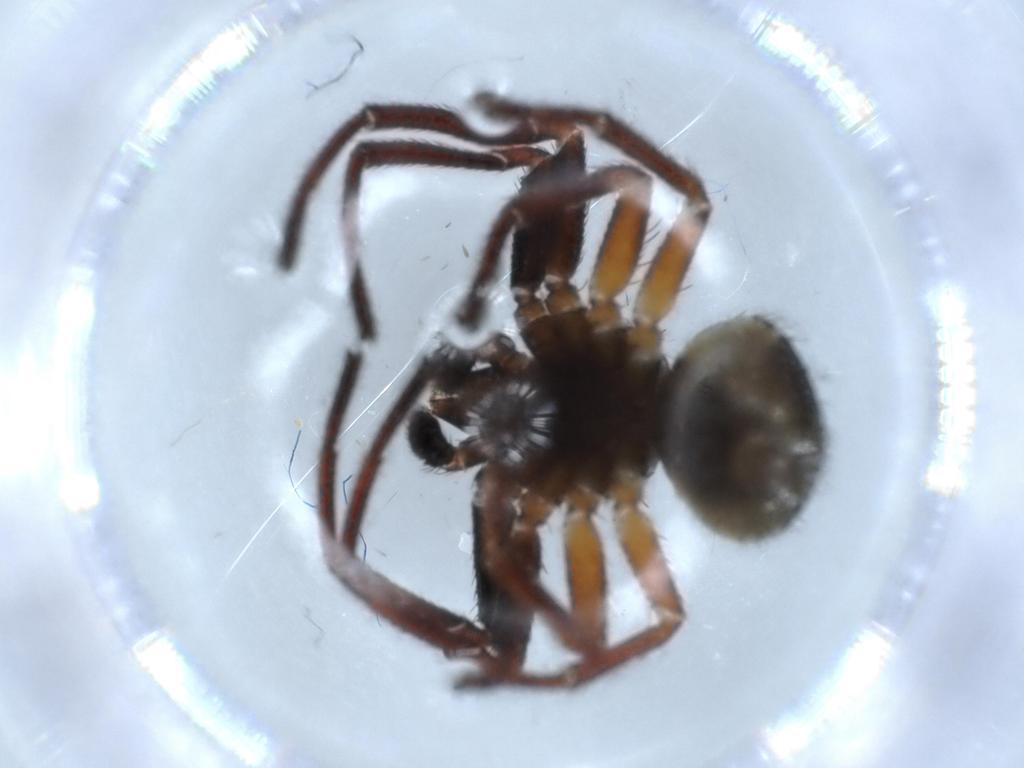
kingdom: Animalia
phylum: Arthropoda
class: Arachnida
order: Araneae
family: Thomisidae
